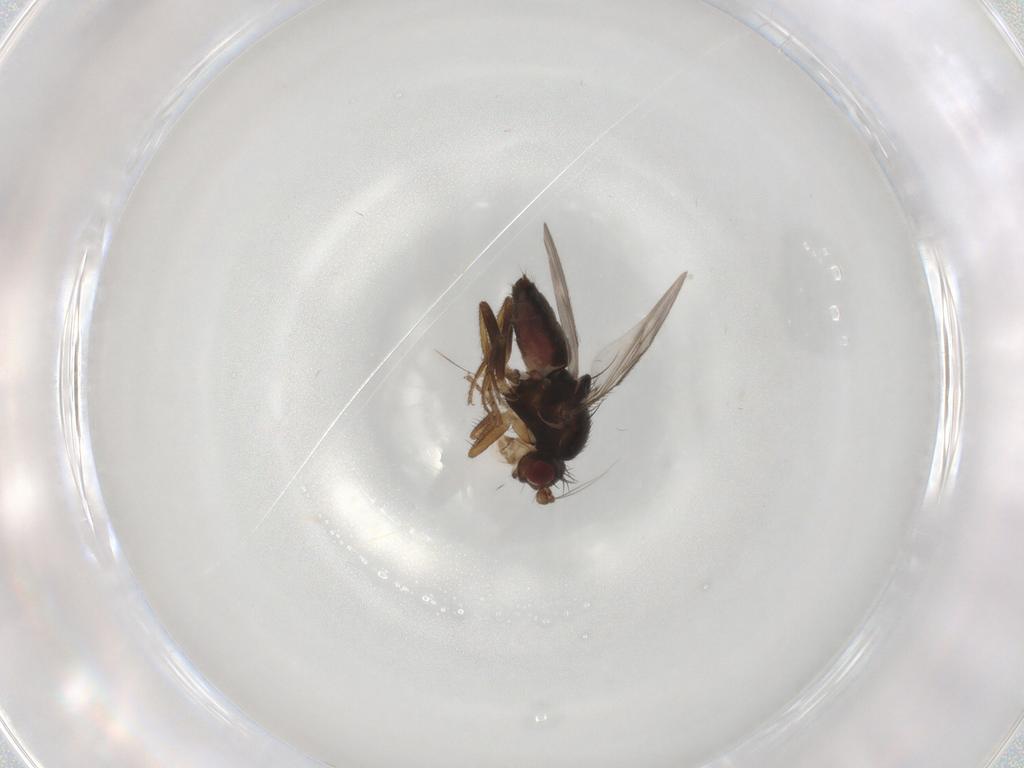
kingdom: Animalia
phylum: Arthropoda
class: Insecta
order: Diptera
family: Sphaeroceridae
